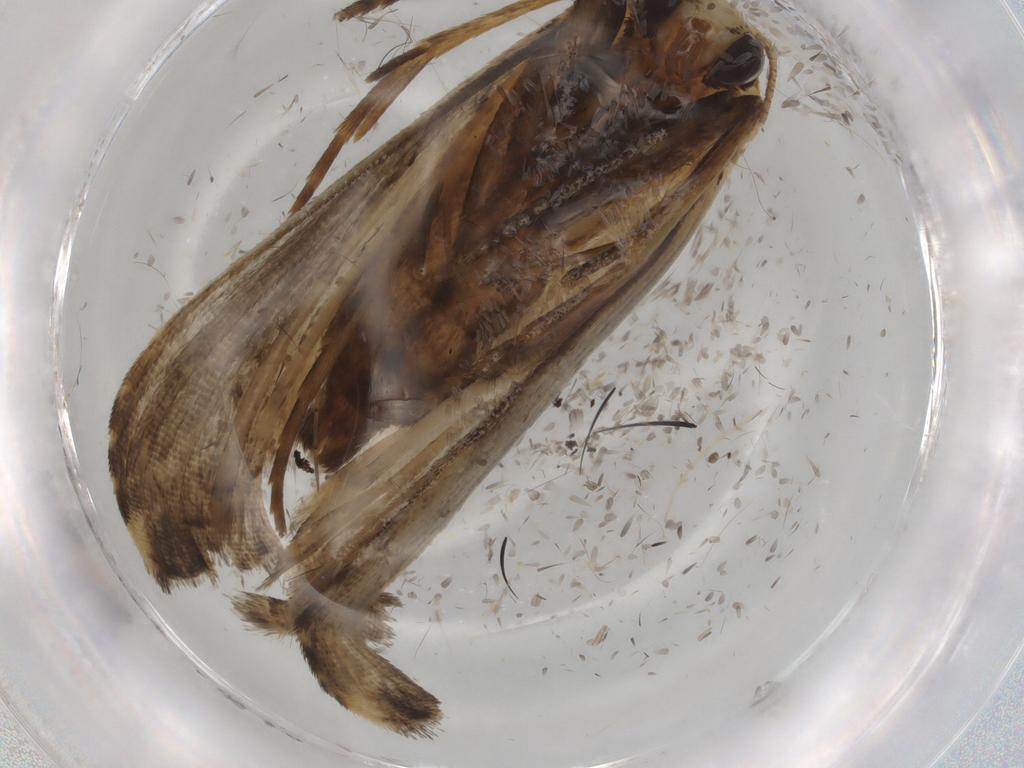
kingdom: Animalia
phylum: Arthropoda
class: Insecta
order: Lepidoptera
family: Noctuidae
